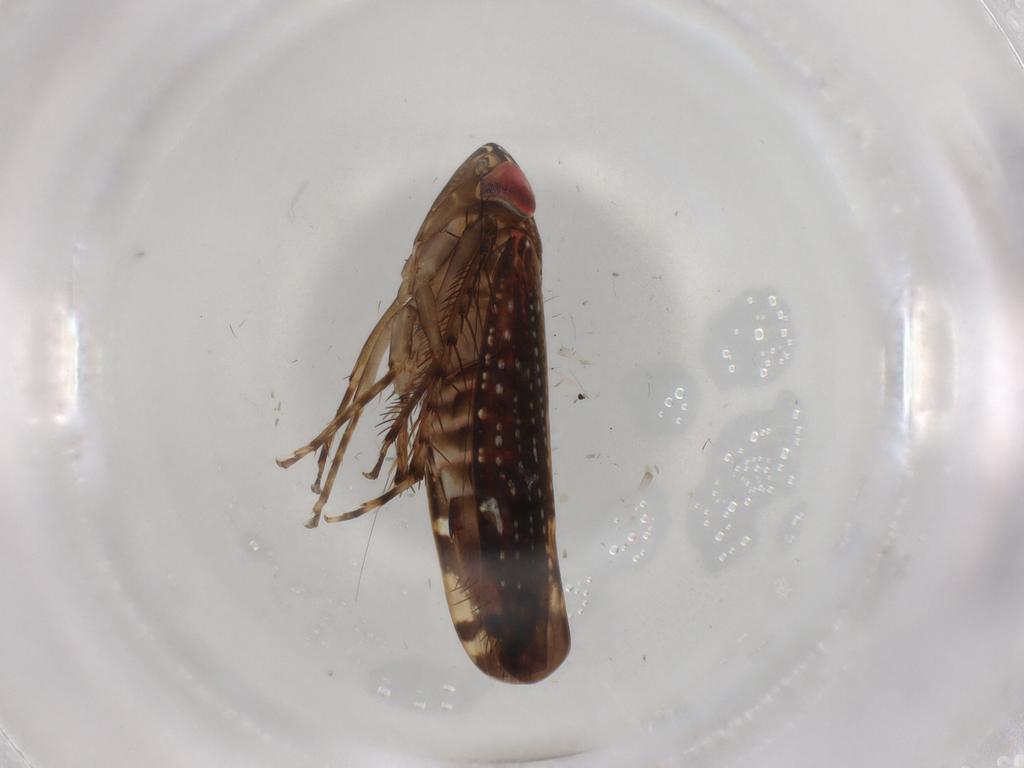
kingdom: Animalia
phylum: Arthropoda
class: Insecta
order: Hemiptera
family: Cicadellidae
